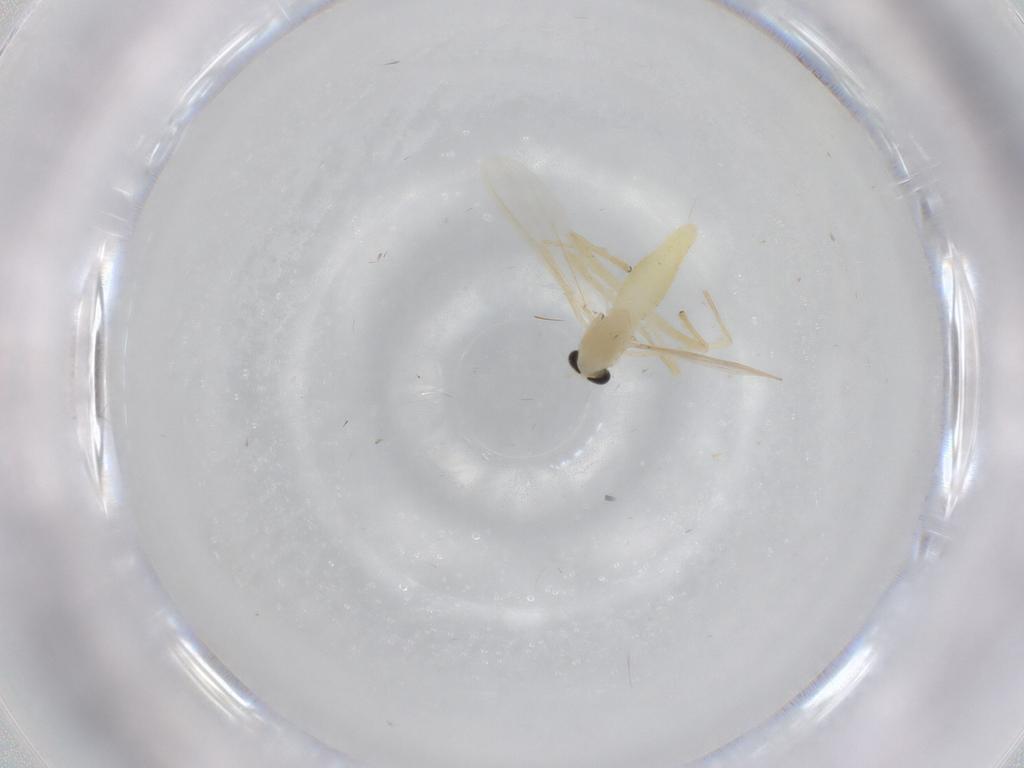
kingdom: Animalia
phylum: Arthropoda
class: Insecta
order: Diptera
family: Chironomidae
